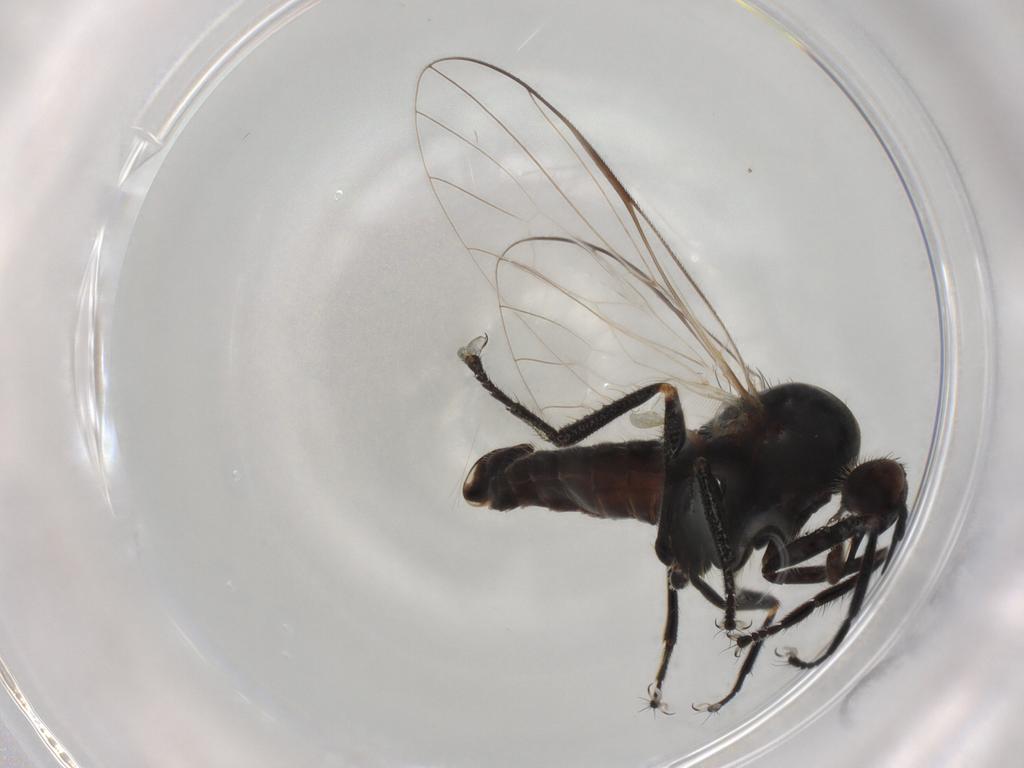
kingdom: Animalia
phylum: Arthropoda
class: Insecta
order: Diptera
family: Empididae
